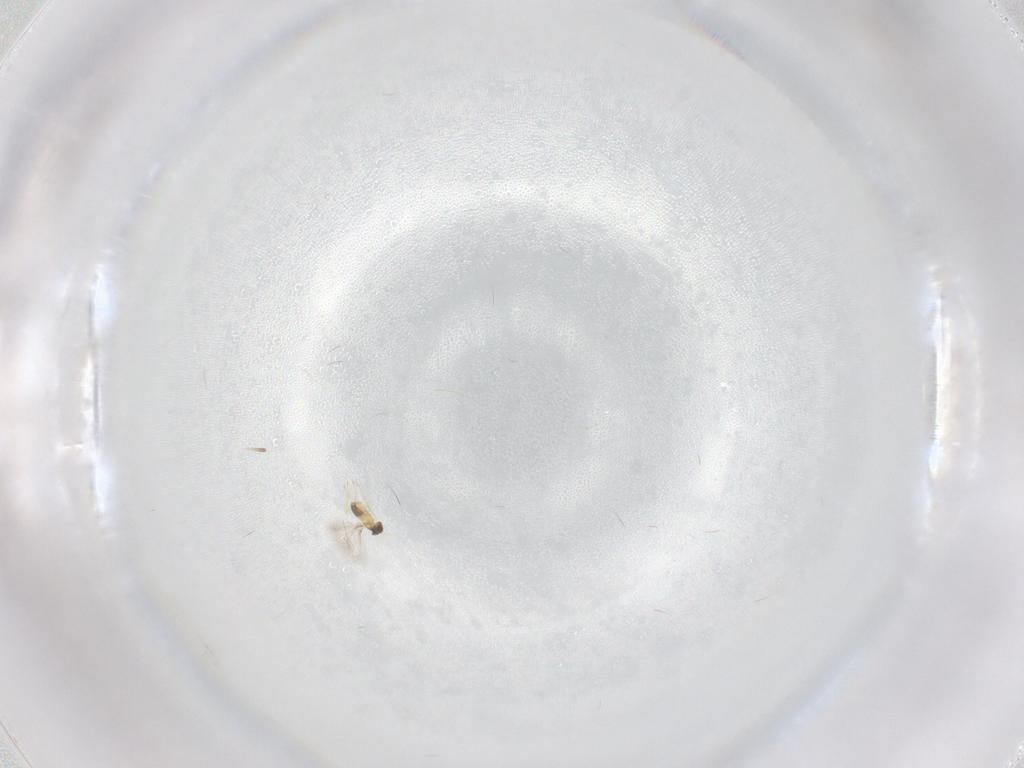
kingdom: Animalia
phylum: Arthropoda
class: Insecta
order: Hymenoptera
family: Mymaridae
